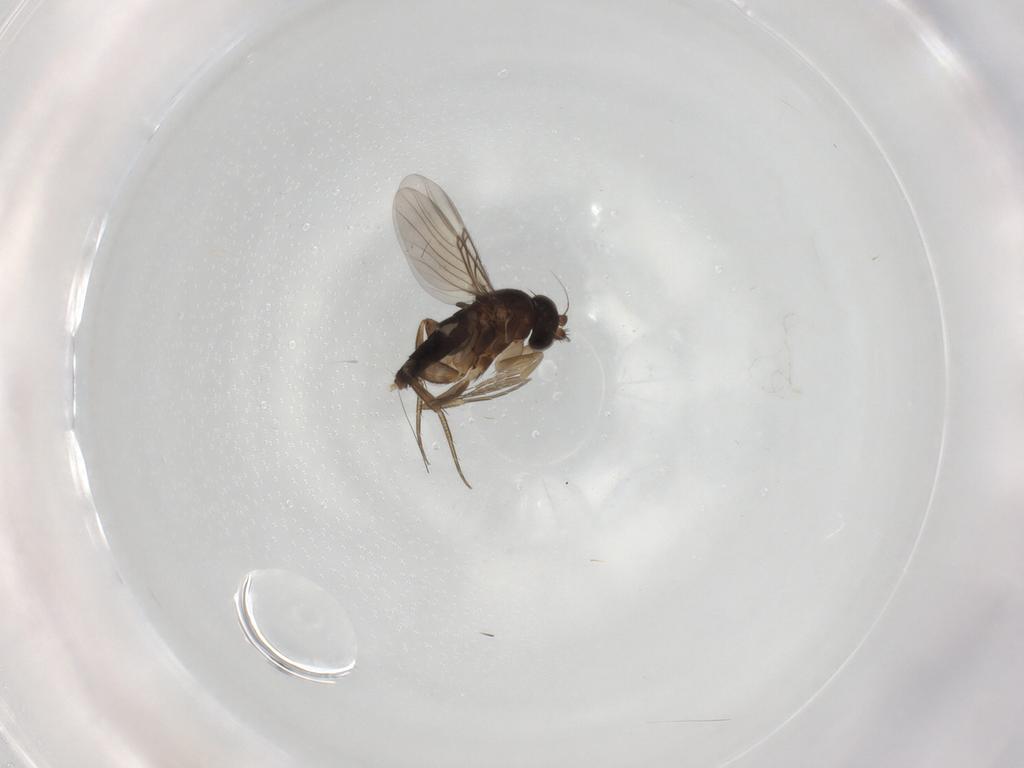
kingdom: Animalia
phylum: Arthropoda
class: Insecta
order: Diptera
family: Phoridae
